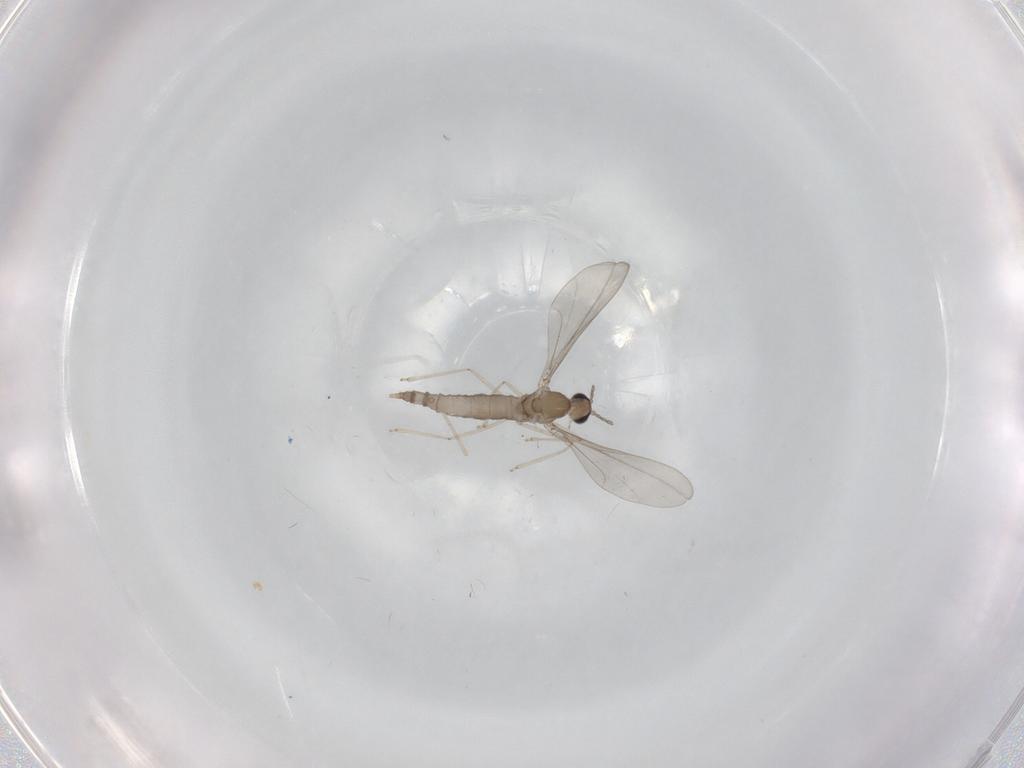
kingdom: Animalia
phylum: Arthropoda
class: Insecta
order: Diptera
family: Cecidomyiidae
